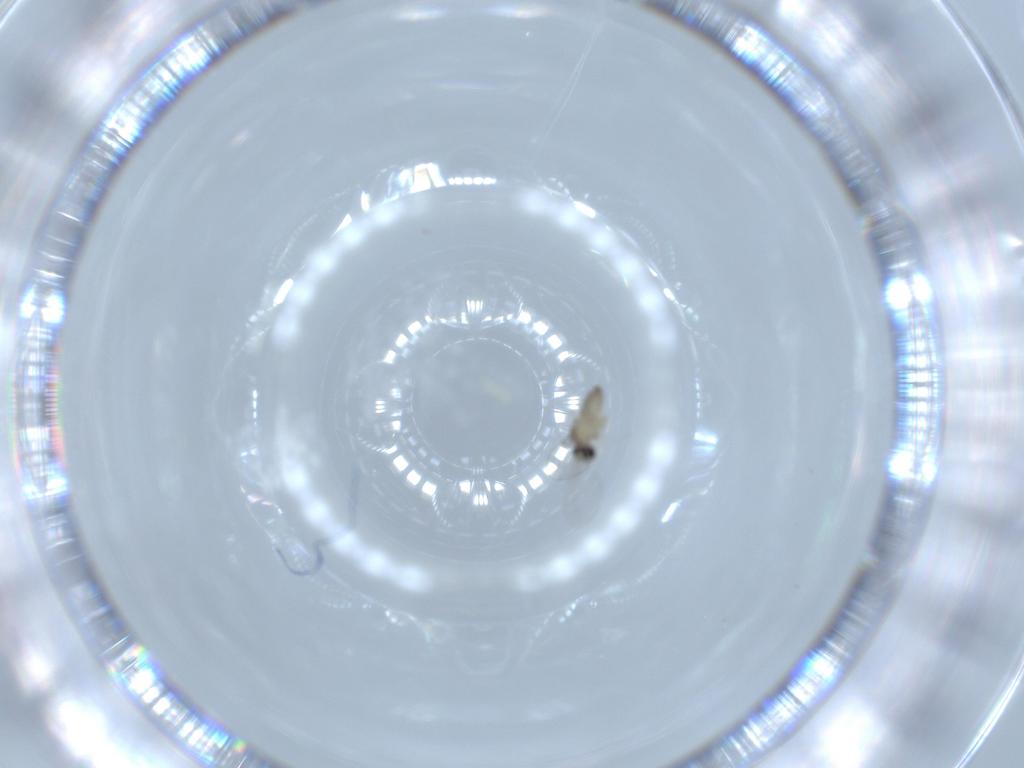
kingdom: Animalia
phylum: Arthropoda
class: Insecta
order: Diptera
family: Cecidomyiidae
